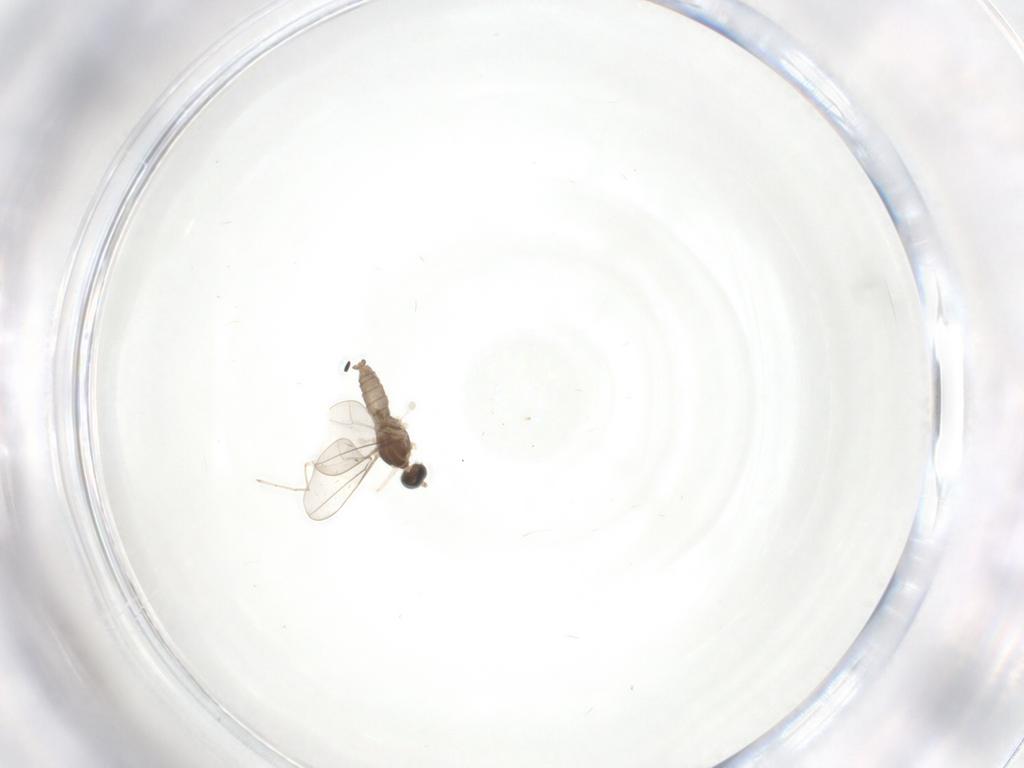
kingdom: Animalia
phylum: Arthropoda
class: Insecta
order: Diptera
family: Cecidomyiidae
